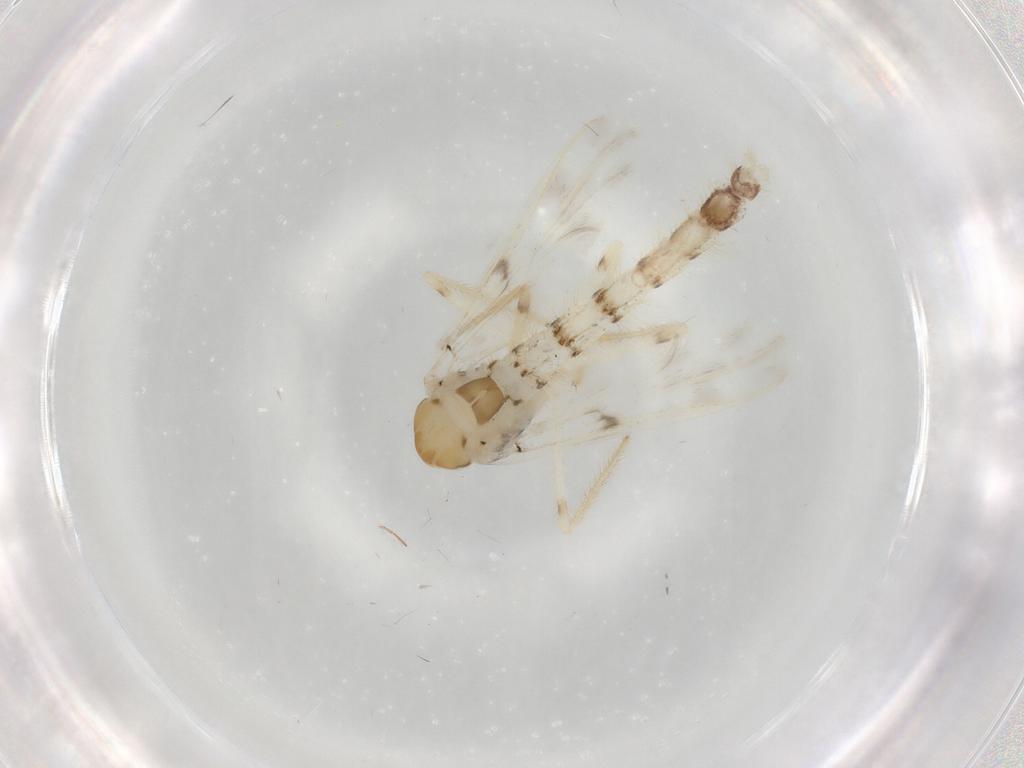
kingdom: Animalia
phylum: Arthropoda
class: Insecta
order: Diptera
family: Chironomidae
